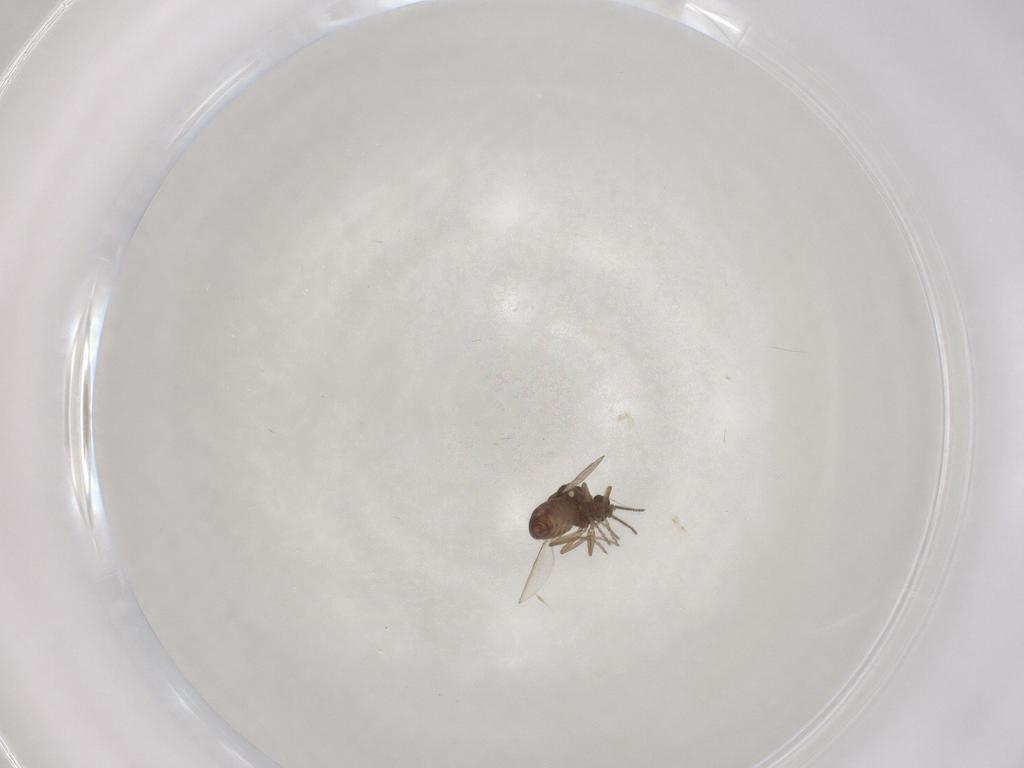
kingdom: Animalia
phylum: Arthropoda
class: Insecta
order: Diptera
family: Ceratopogonidae
